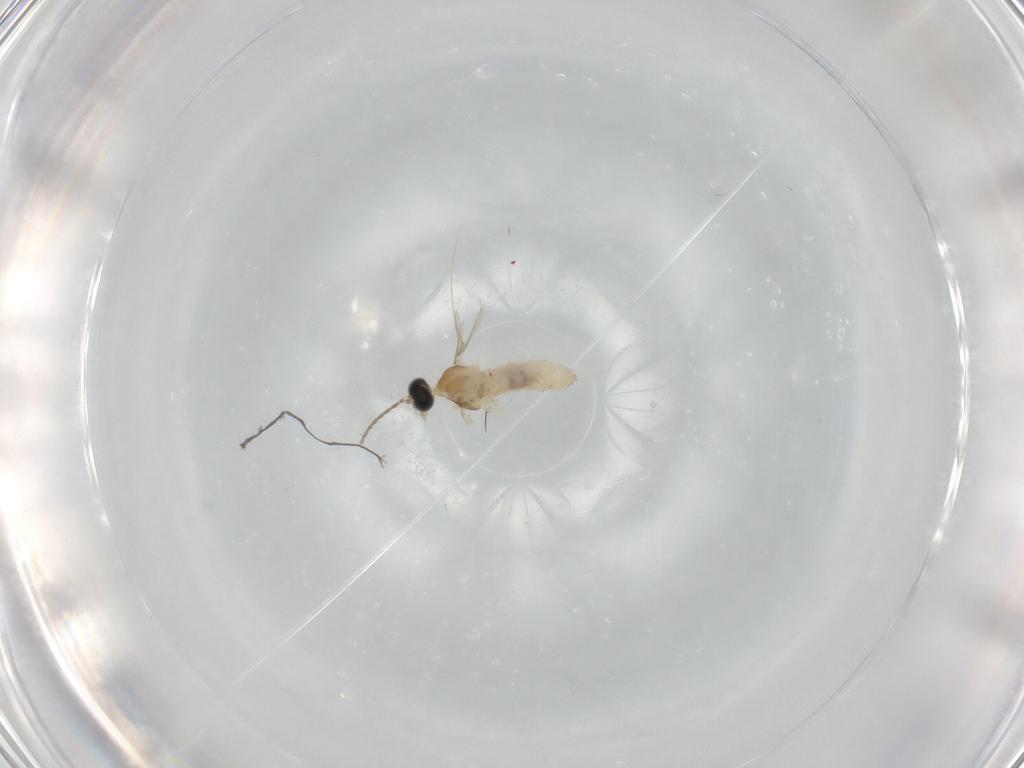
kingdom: Animalia
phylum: Arthropoda
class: Insecta
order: Diptera
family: Cecidomyiidae
